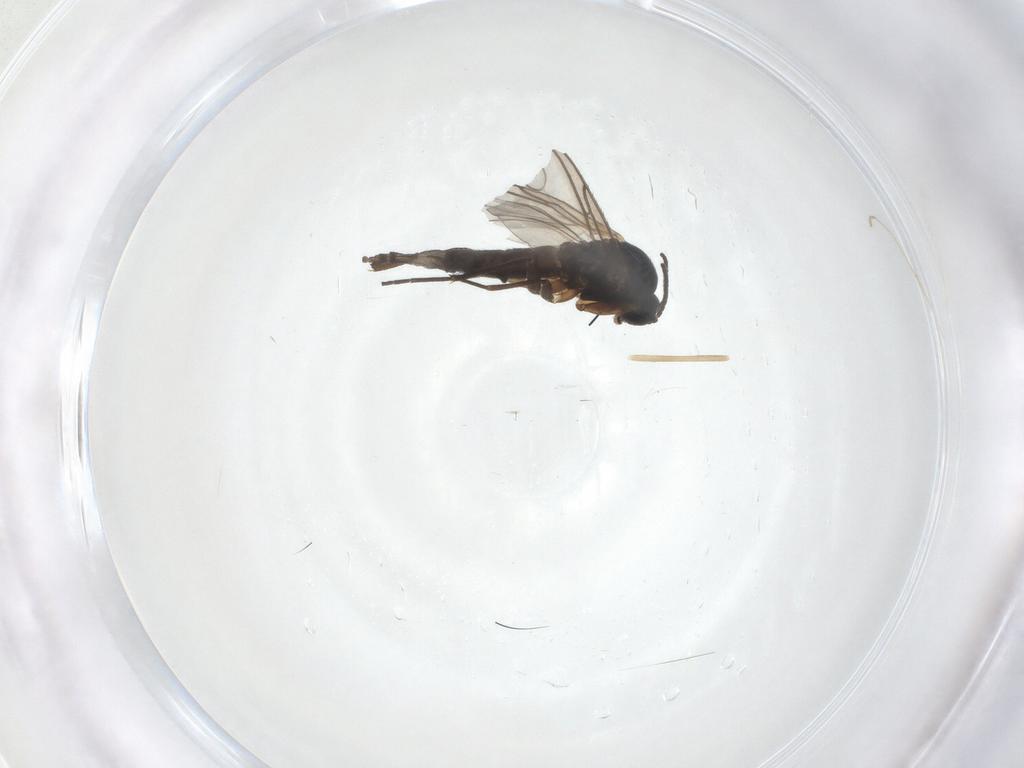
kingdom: Animalia
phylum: Arthropoda
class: Insecta
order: Diptera
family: Sciaridae
